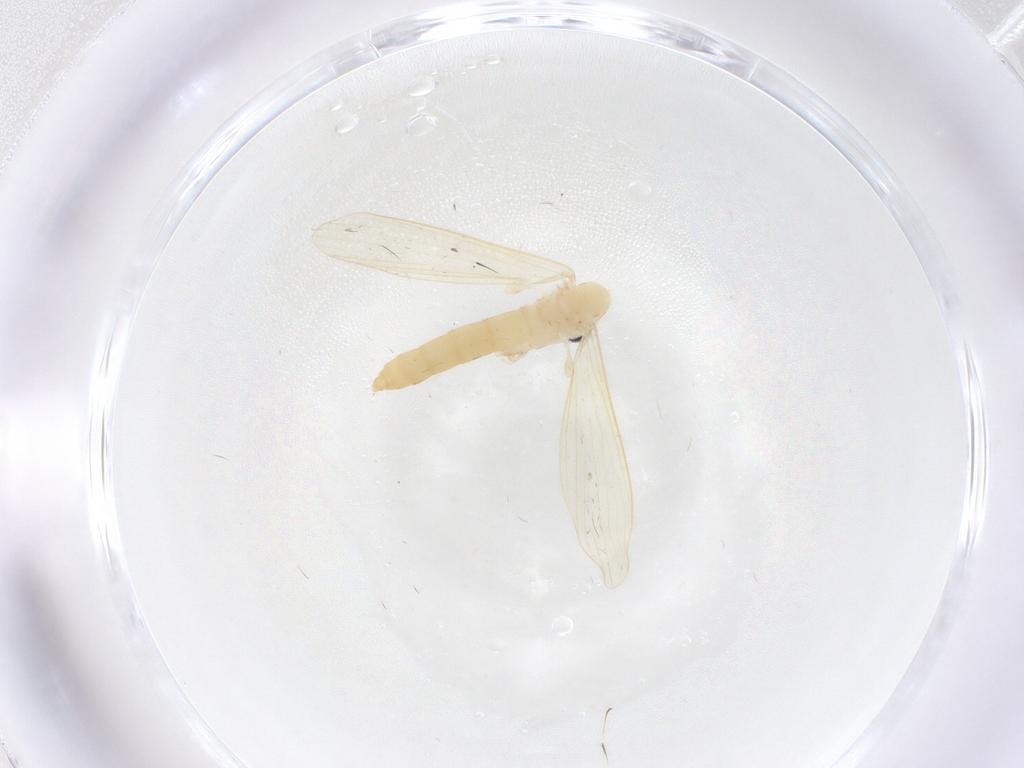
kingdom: Animalia
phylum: Arthropoda
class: Insecta
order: Diptera
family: Psychodidae
